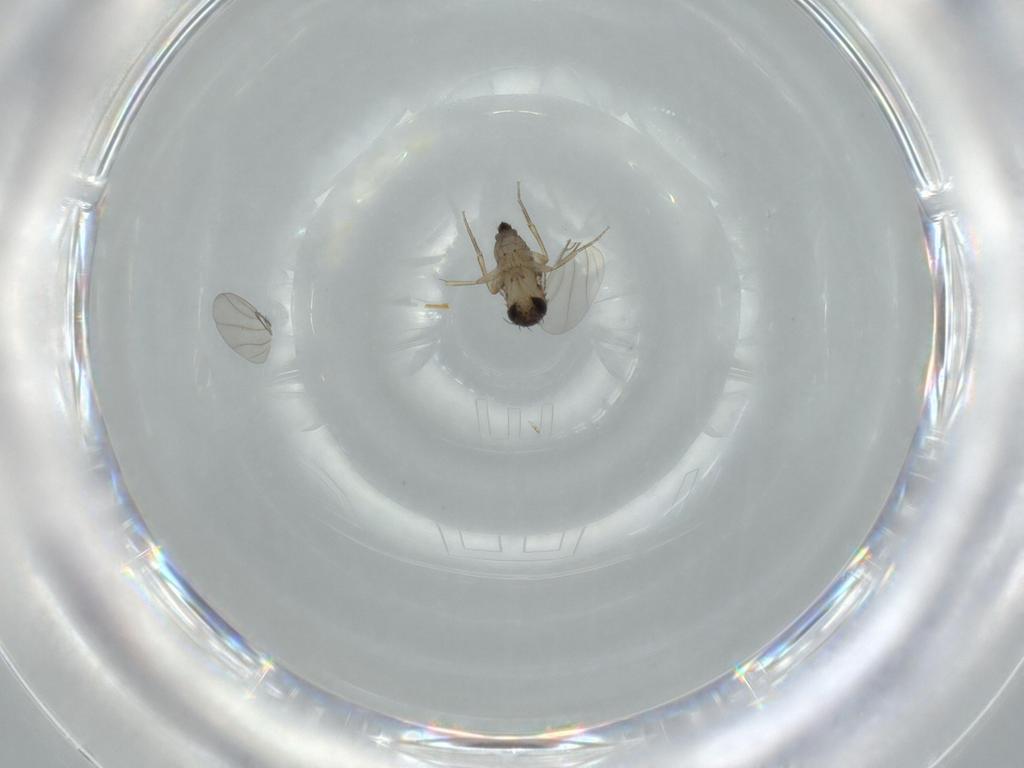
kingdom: Animalia
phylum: Arthropoda
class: Insecta
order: Diptera
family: Phoridae
